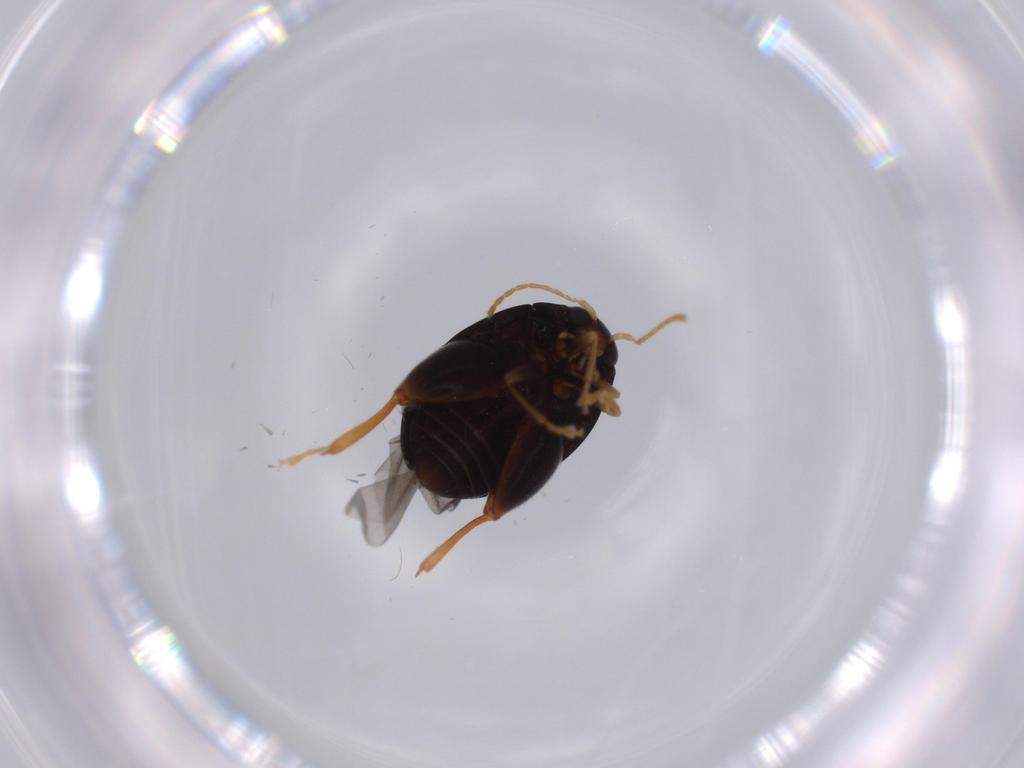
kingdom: Animalia
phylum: Arthropoda
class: Insecta
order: Coleoptera
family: Chrysomelidae
